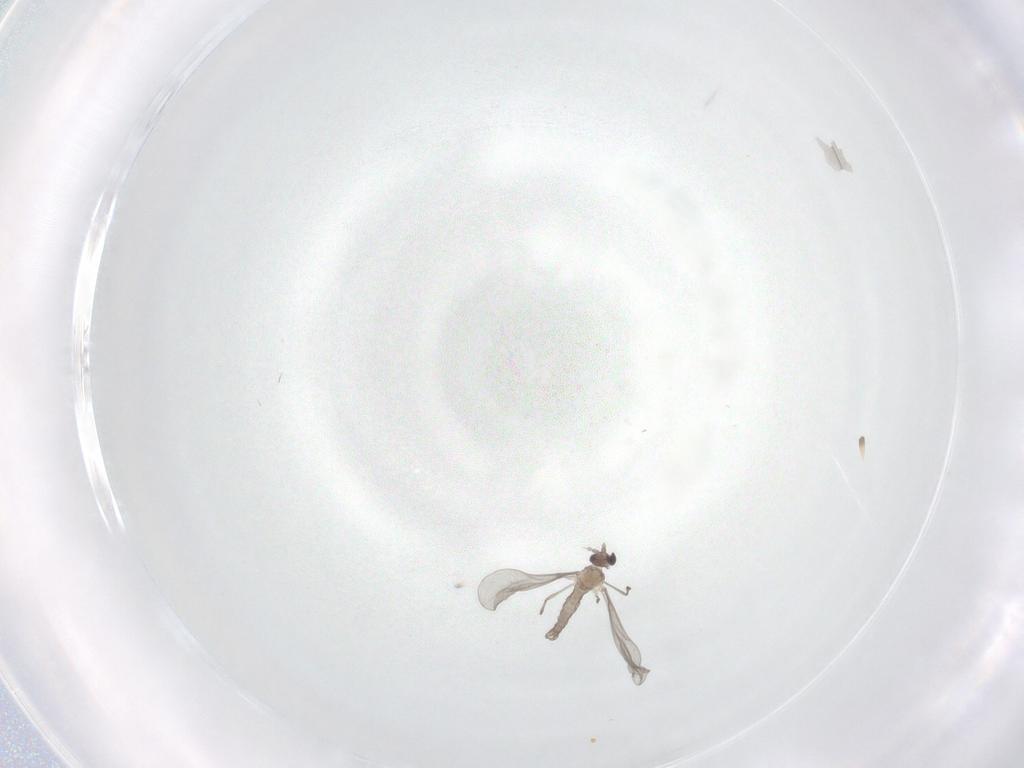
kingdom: Animalia
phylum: Arthropoda
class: Insecta
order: Diptera
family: Cecidomyiidae
